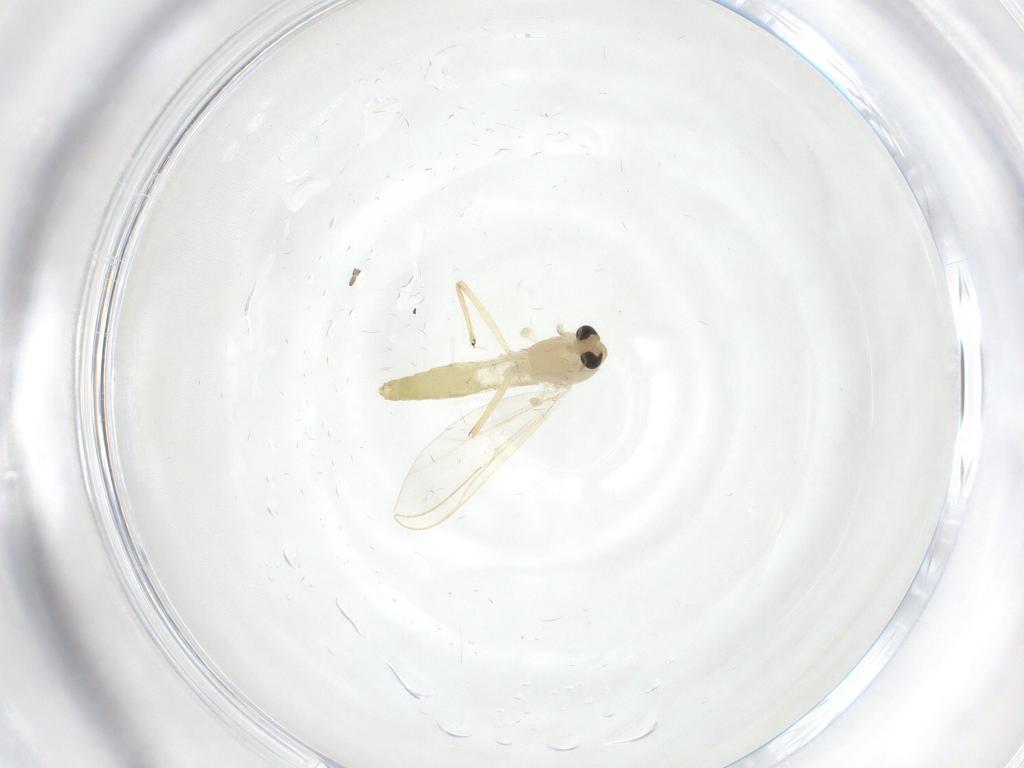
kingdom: Animalia
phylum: Arthropoda
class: Insecta
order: Diptera
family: Chironomidae
